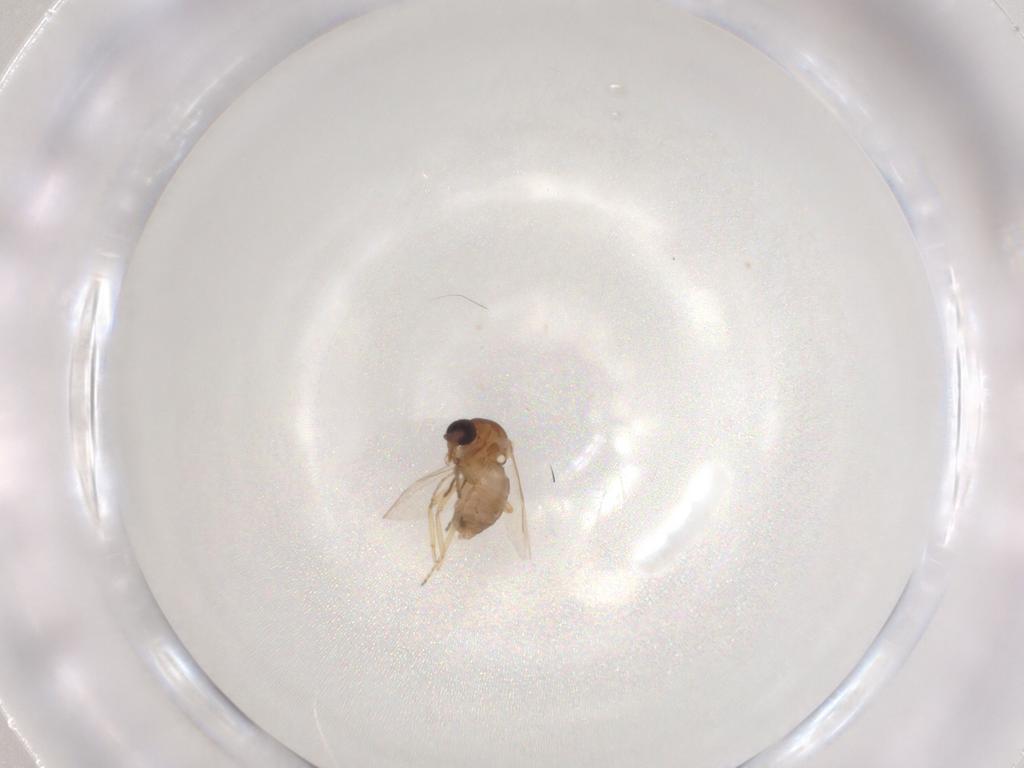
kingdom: Animalia
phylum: Arthropoda
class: Insecta
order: Diptera
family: Ceratopogonidae
